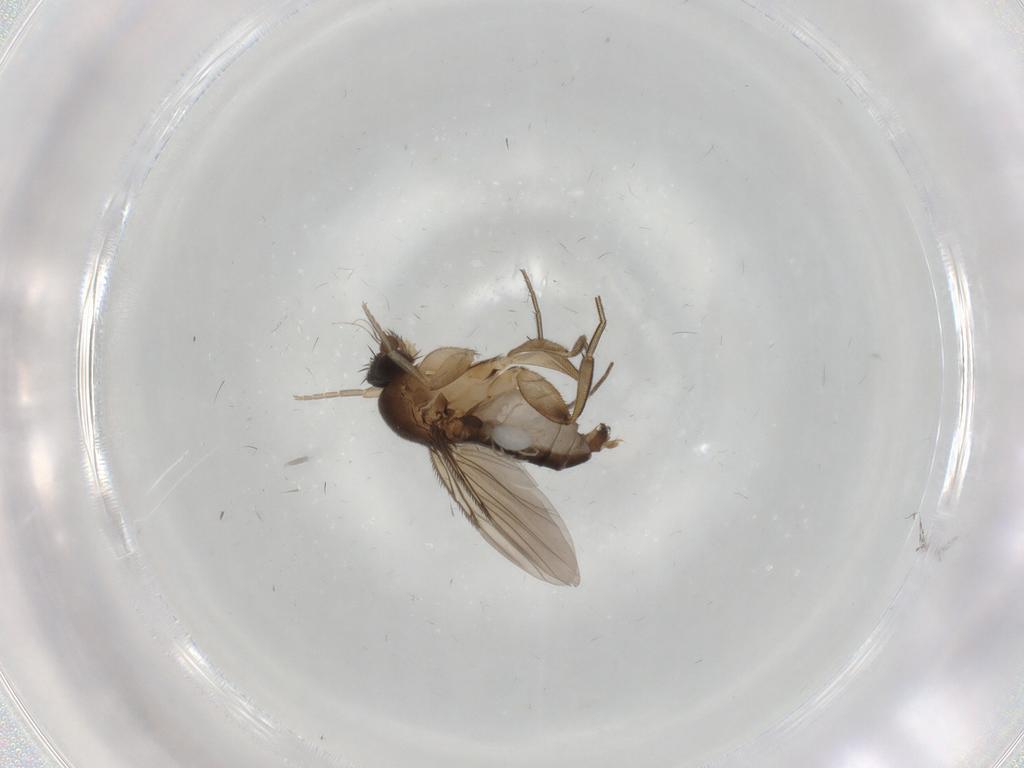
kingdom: Animalia
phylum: Arthropoda
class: Insecta
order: Diptera
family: Phoridae
